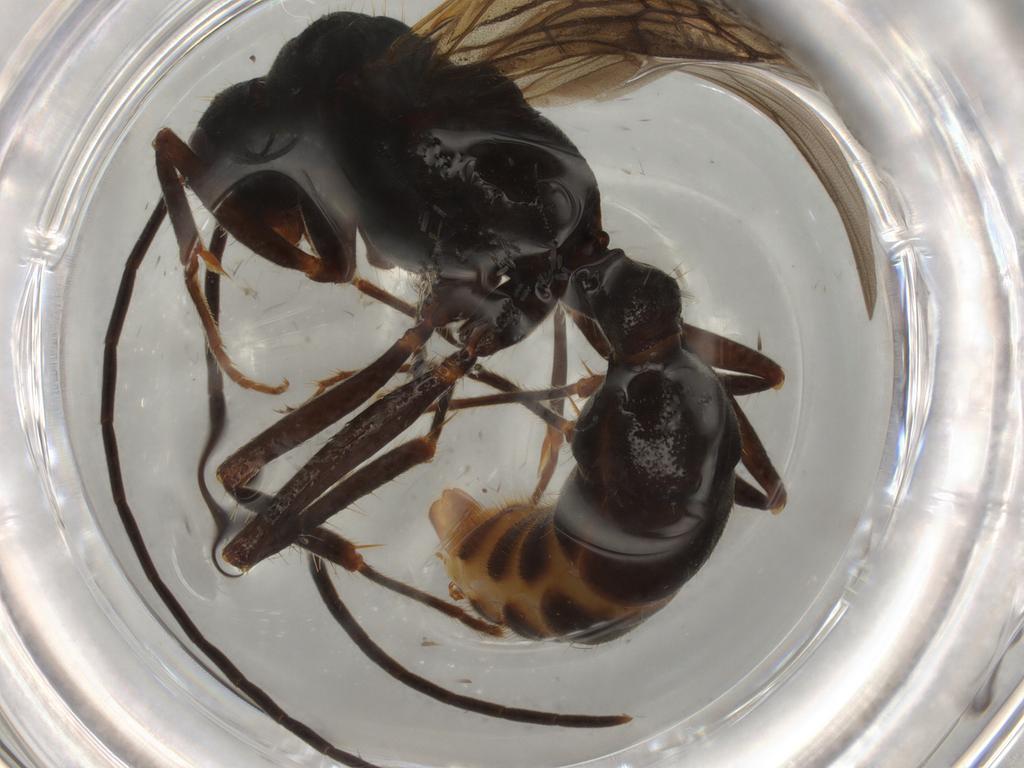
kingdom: Animalia
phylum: Arthropoda
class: Insecta
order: Hymenoptera
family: Formicidae
